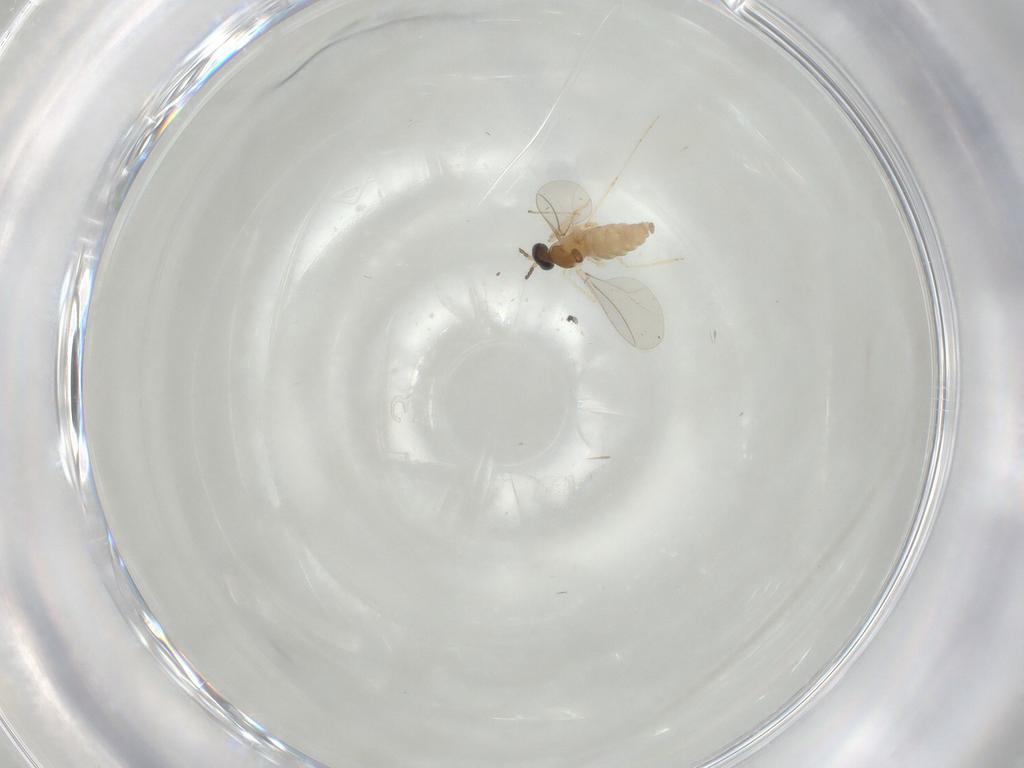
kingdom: Animalia
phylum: Arthropoda
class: Insecta
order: Diptera
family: Cecidomyiidae
